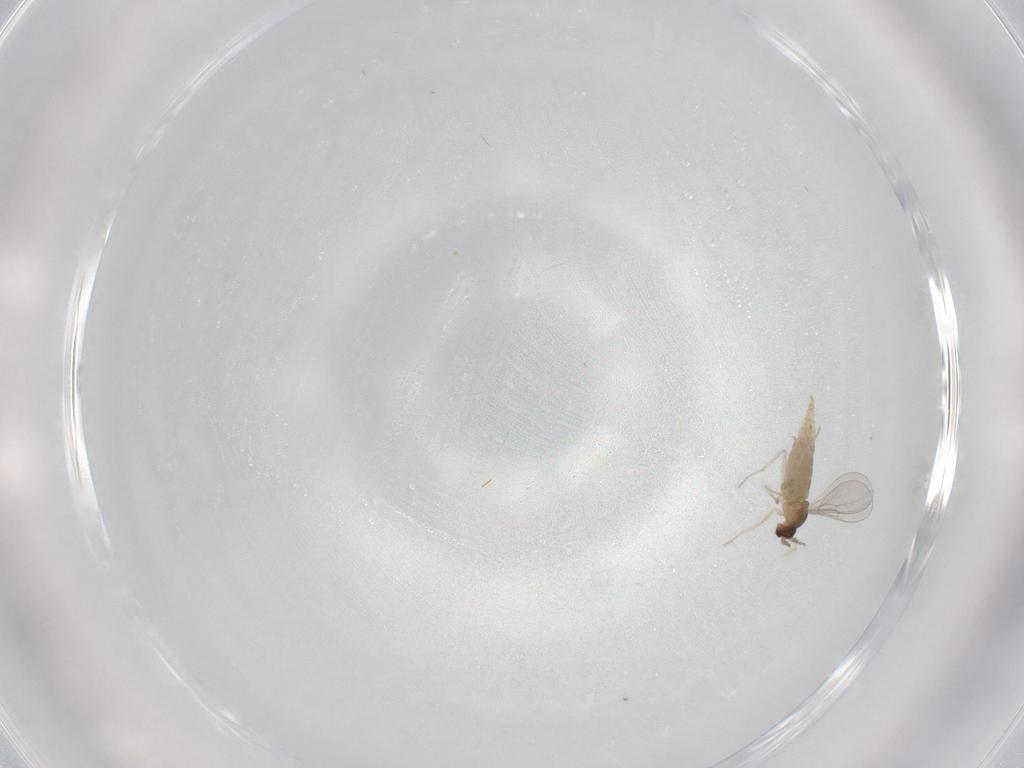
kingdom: Animalia
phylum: Arthropoda
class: Insecta
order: Diptera
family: Cecidomyiidae
